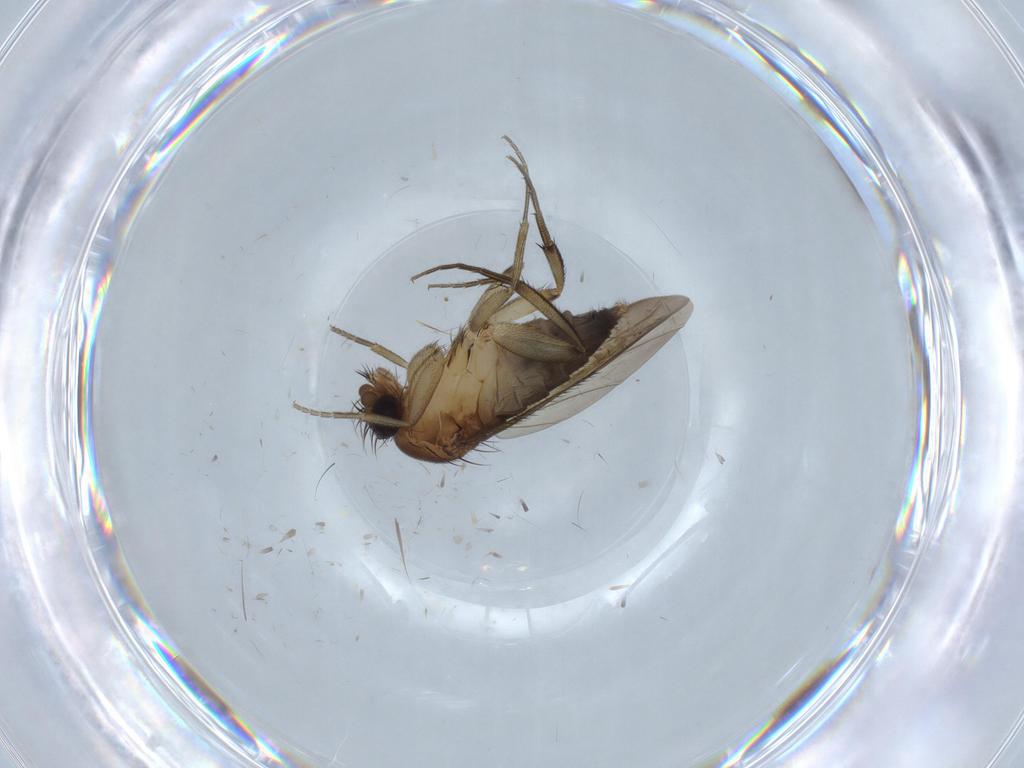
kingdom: Animalia
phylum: Arthropoda
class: Insecta
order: Diptera
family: Phoridae
